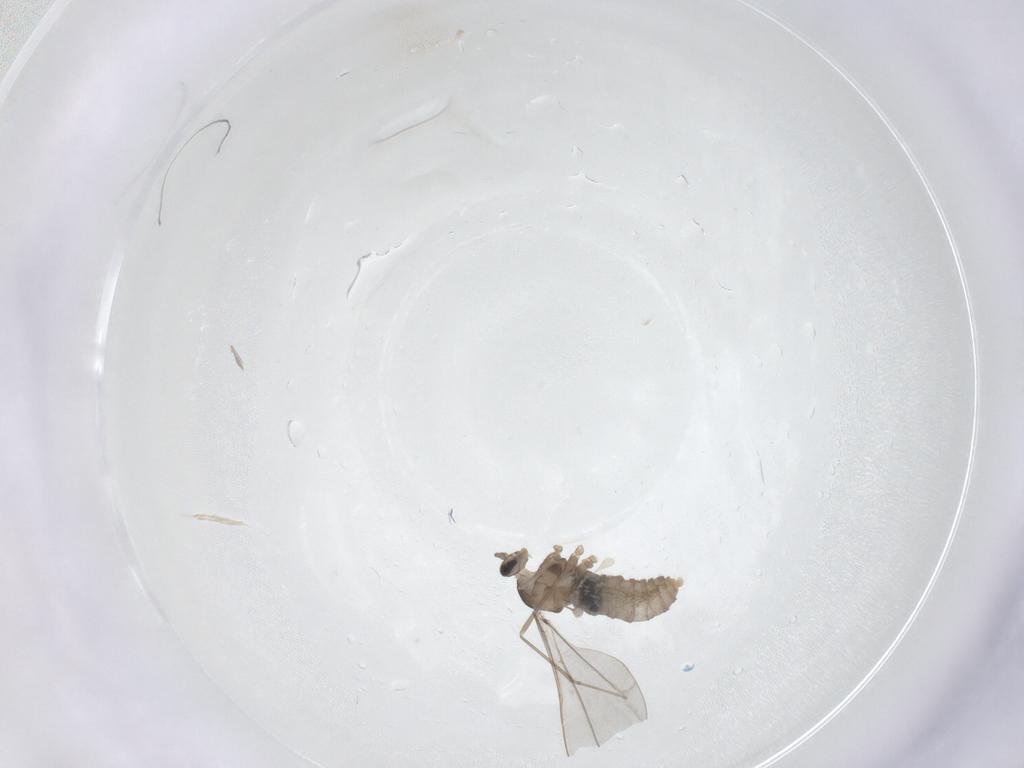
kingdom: Animalia
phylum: Arthropoda
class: Insecta
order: Diptera
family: Cecidomyiidae
